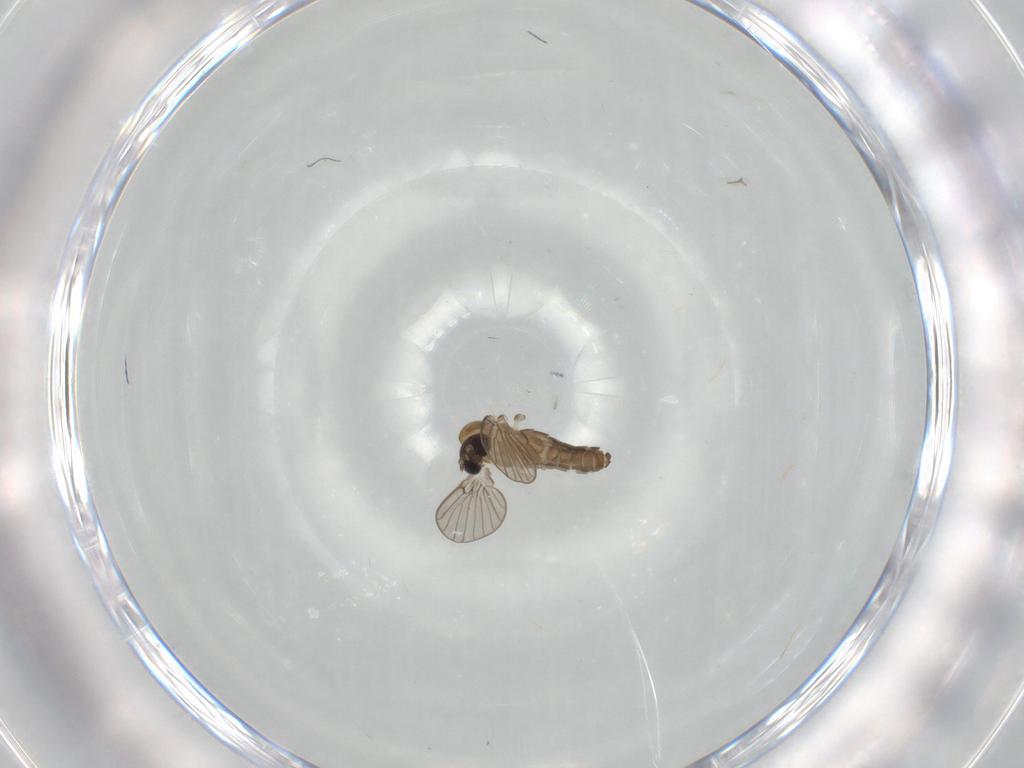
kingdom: Animalia
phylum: Arthropoda
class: Insecta
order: Diptera
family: Psychodidae
